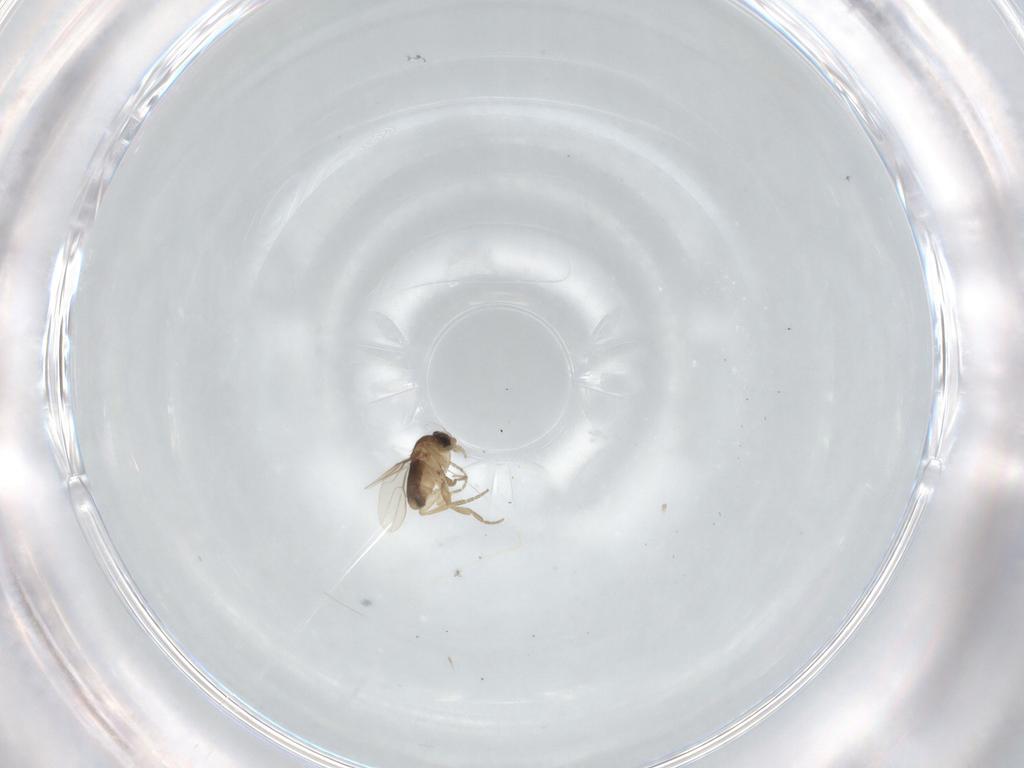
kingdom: Animalia
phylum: Arthropoda
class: Insecta
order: Diptera
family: Phoridae
